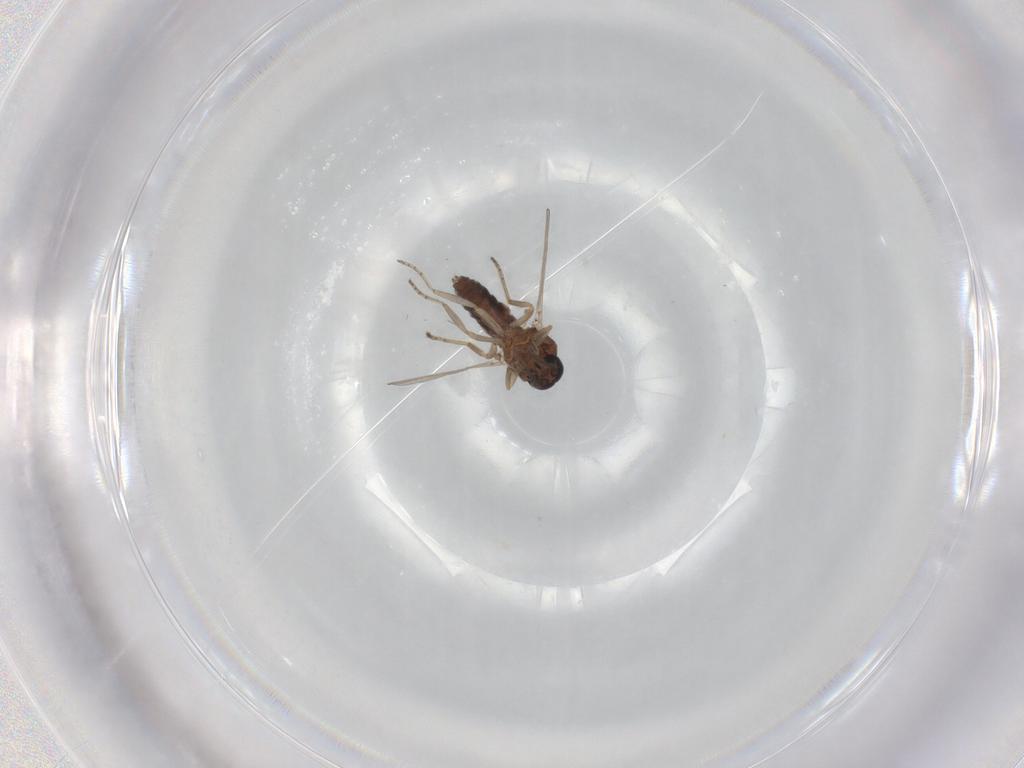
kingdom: Animalia
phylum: Arthropoda
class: Insecta
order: Diptera
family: Ceratopogonidae
